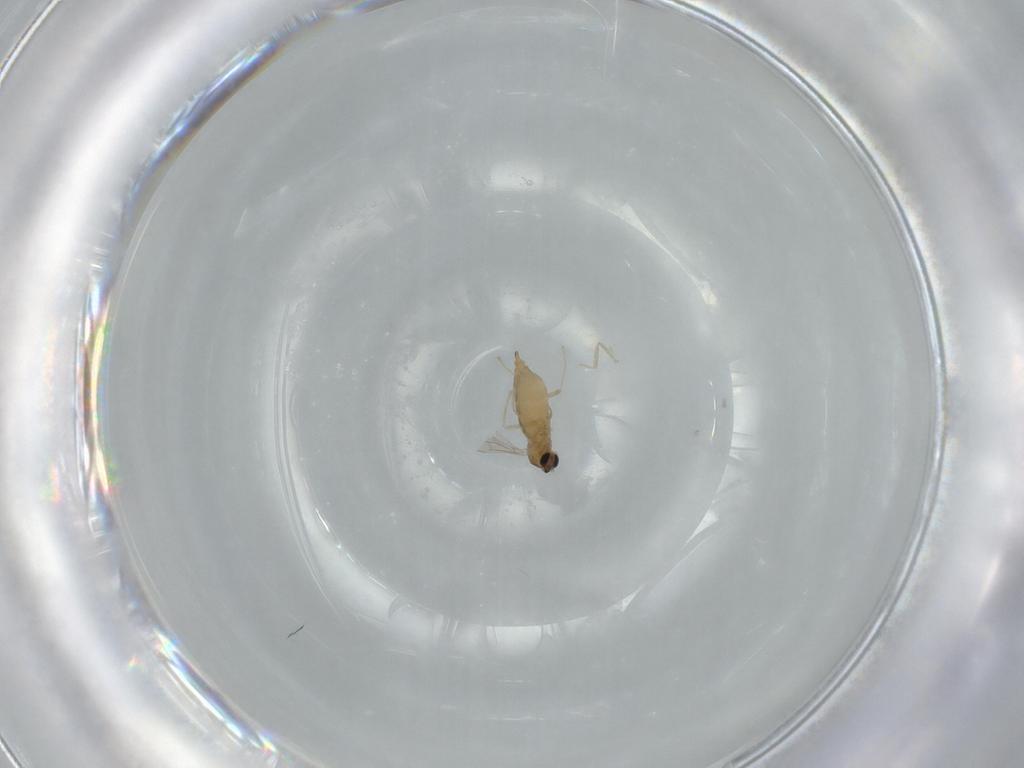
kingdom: Animalia
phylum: Arthropoda
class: Insecta
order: Diptera
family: Cecidomyiidae
